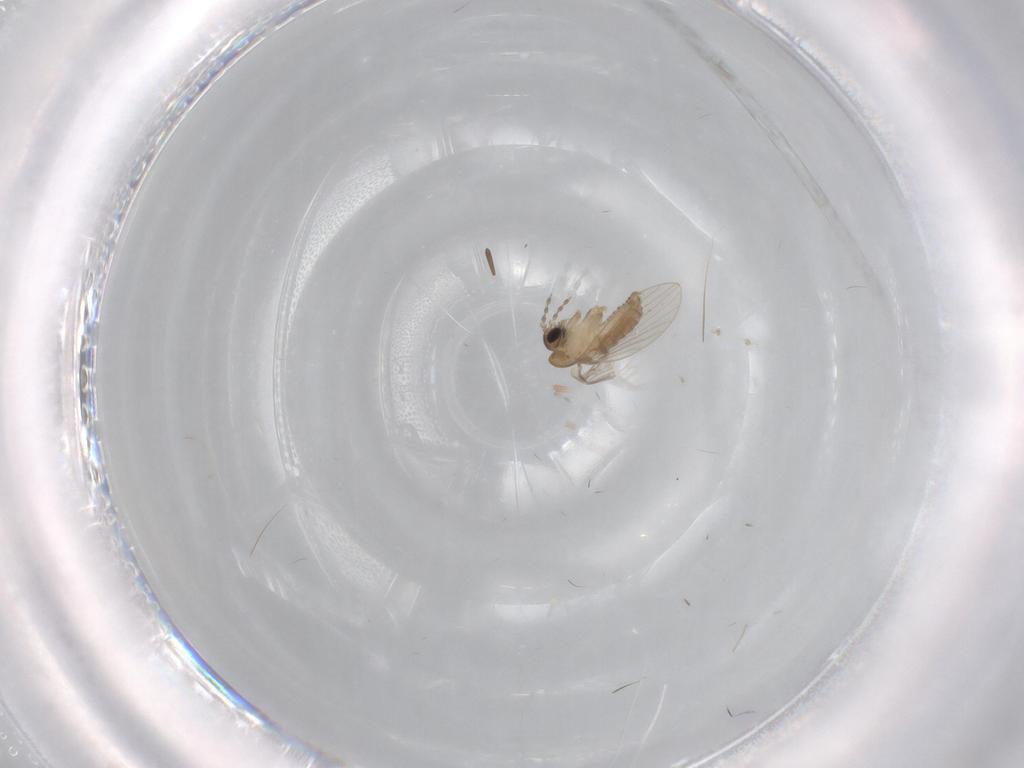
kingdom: Animalia
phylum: Arthropoda
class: Insecta
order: Diptera
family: Psychodidae
